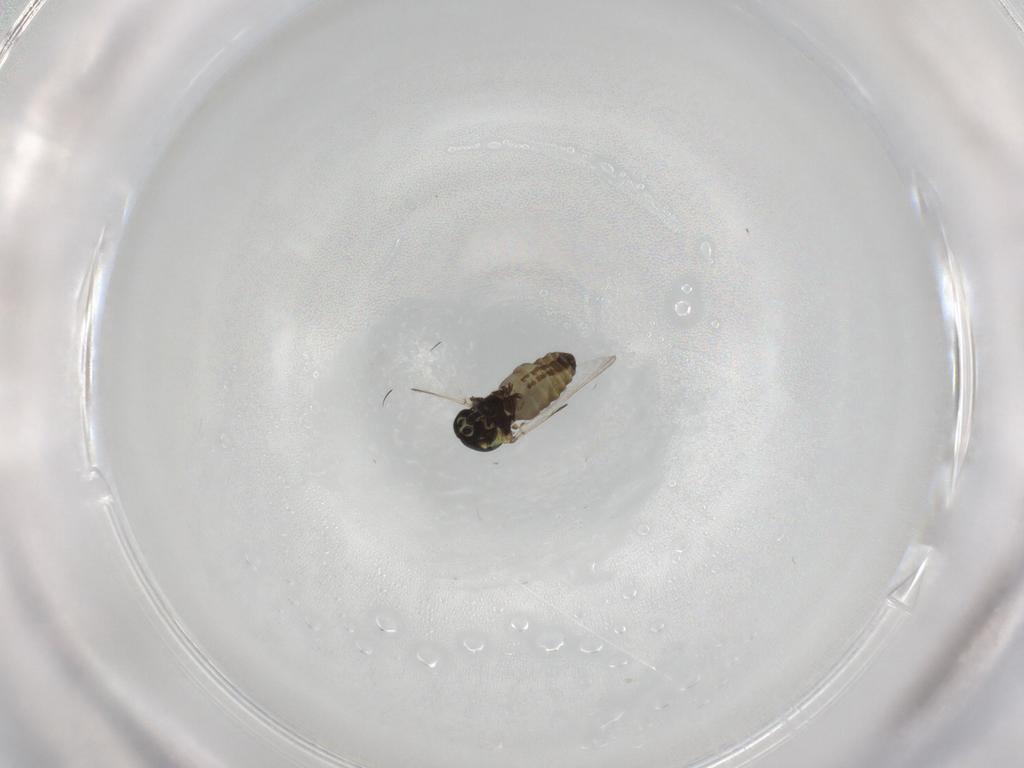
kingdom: Animalia
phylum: Arthropoda
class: Insecta
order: Diptera
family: Ceratopogonidae
